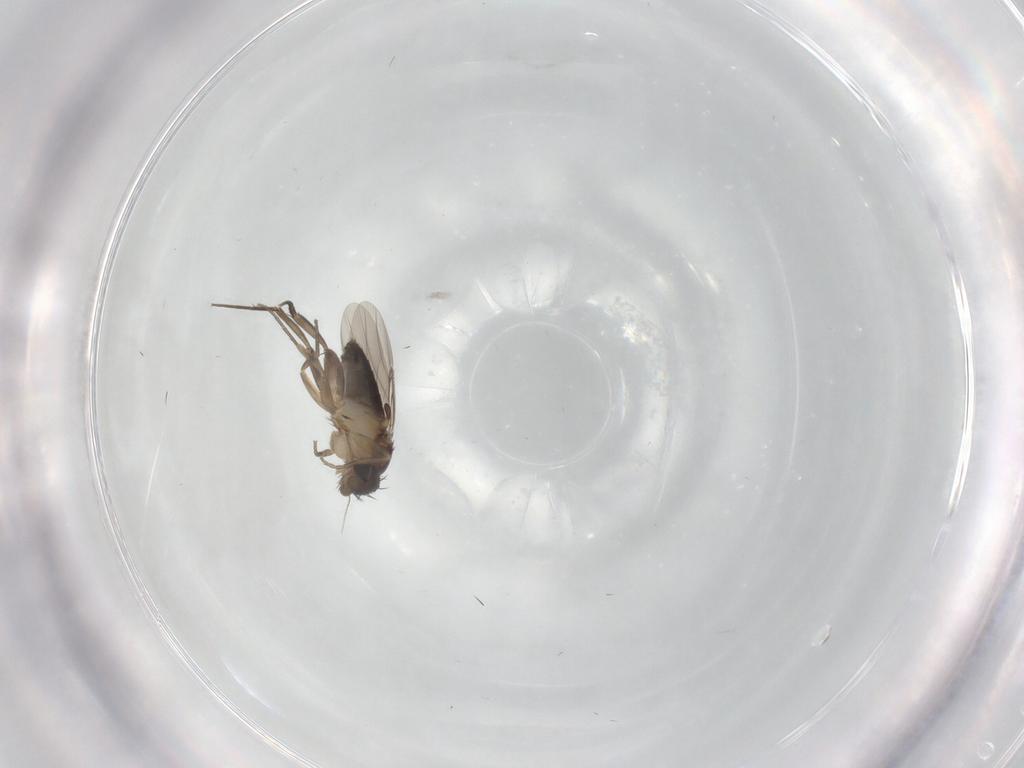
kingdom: Animalia
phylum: Arthropoda
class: Insecta
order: Diptera
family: Phoridae
